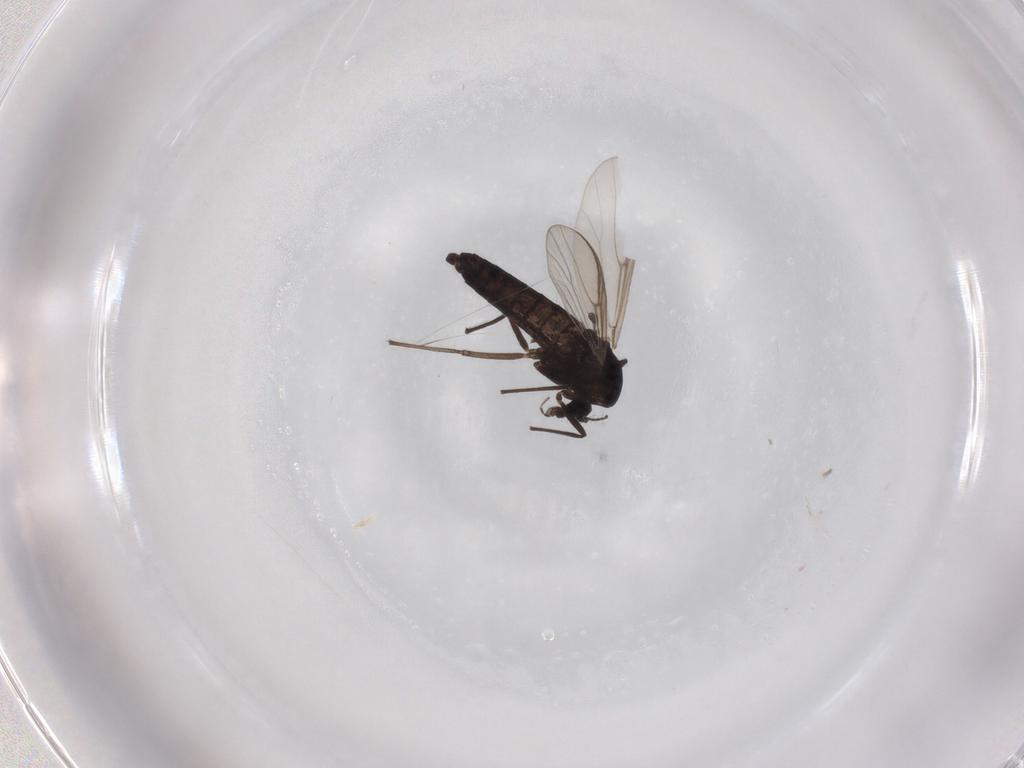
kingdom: Animalia
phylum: Arthropoda
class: Insecta
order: Diptera
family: Chironomidae
